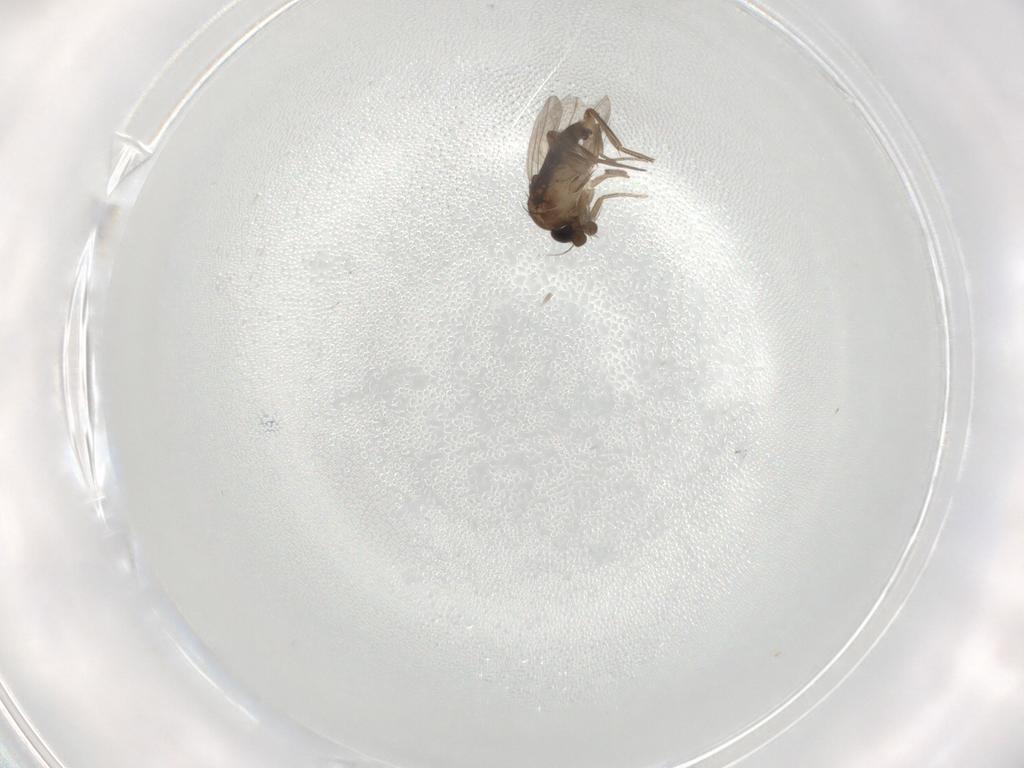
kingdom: Animalia
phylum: Arthropoda
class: Insecta
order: Diptera
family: Phoridae
